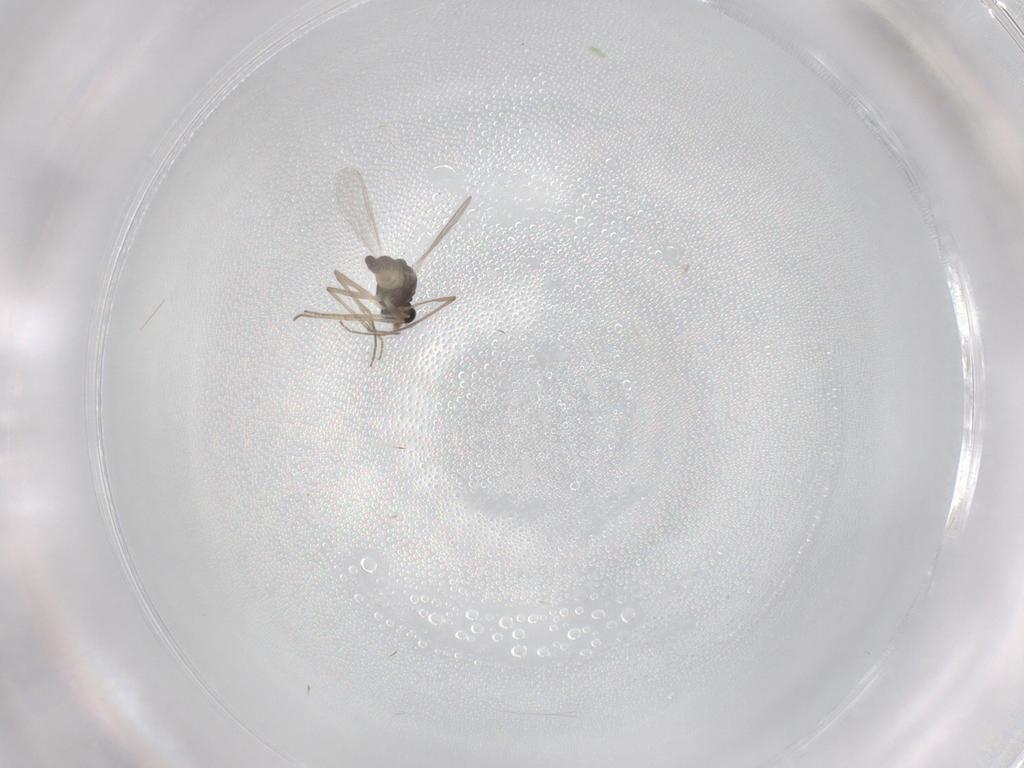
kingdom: Animalia
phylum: Arthropoda
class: Insecta
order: Diptera
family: Chironomidae
